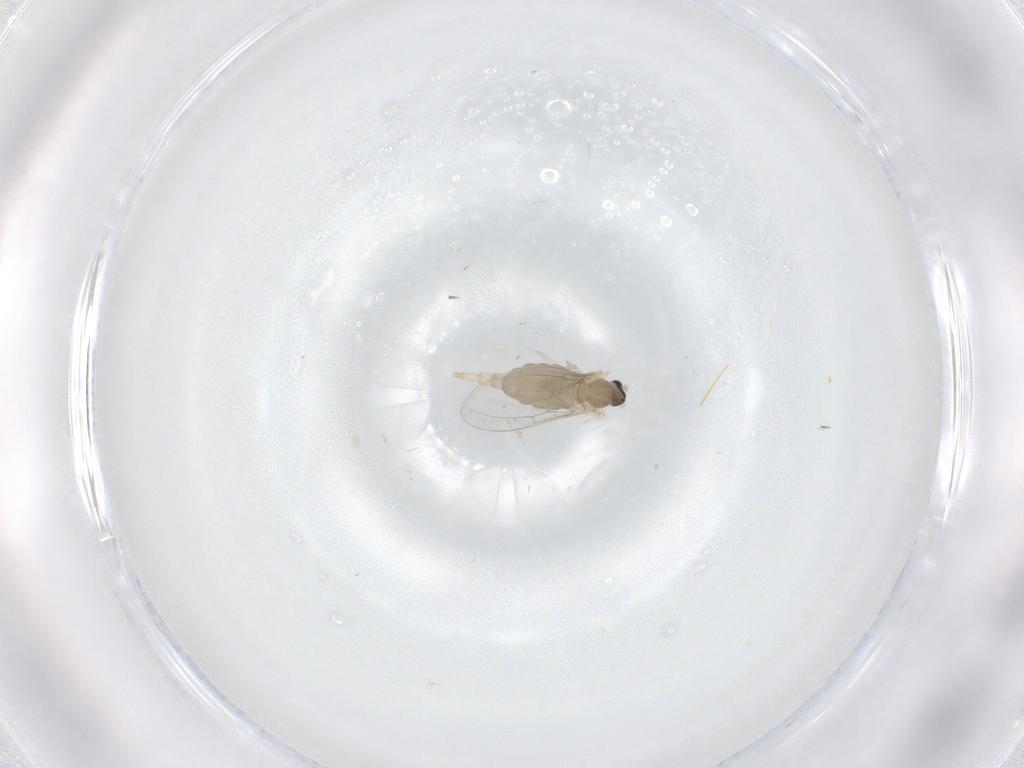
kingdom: Animalia
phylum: Arthropoda
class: Insecta
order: Diptera
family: Cecidomyiidae
